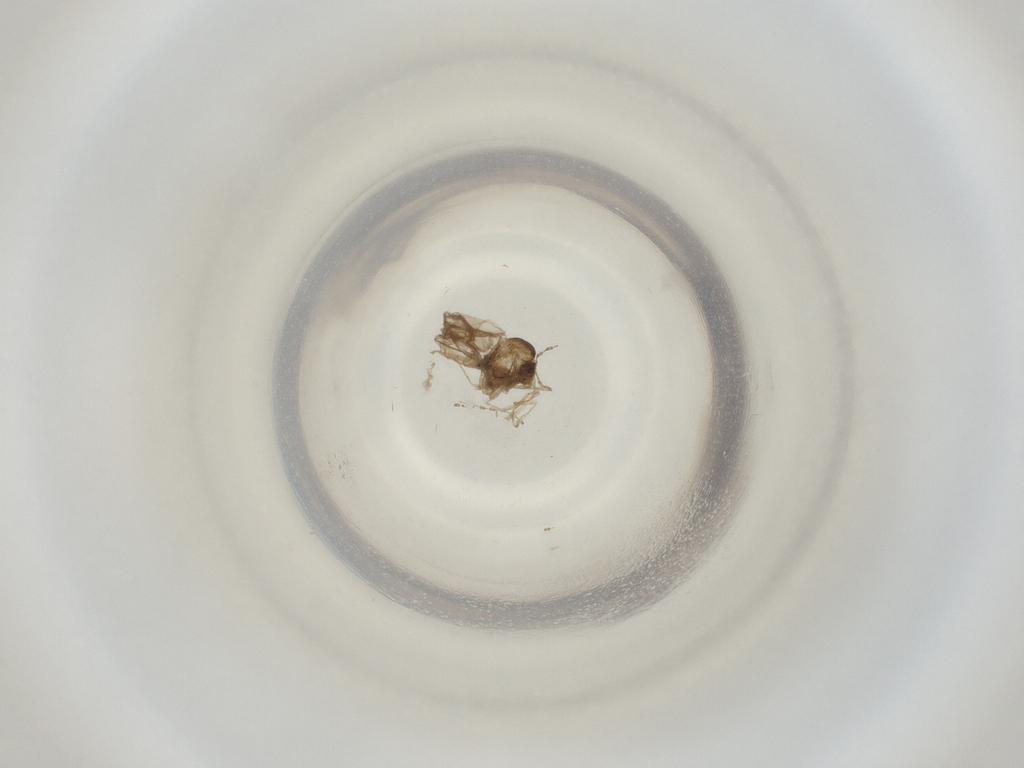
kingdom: Animalia
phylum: Arthropoda
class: Insecta
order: Diptera
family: Cecidomyiidae
